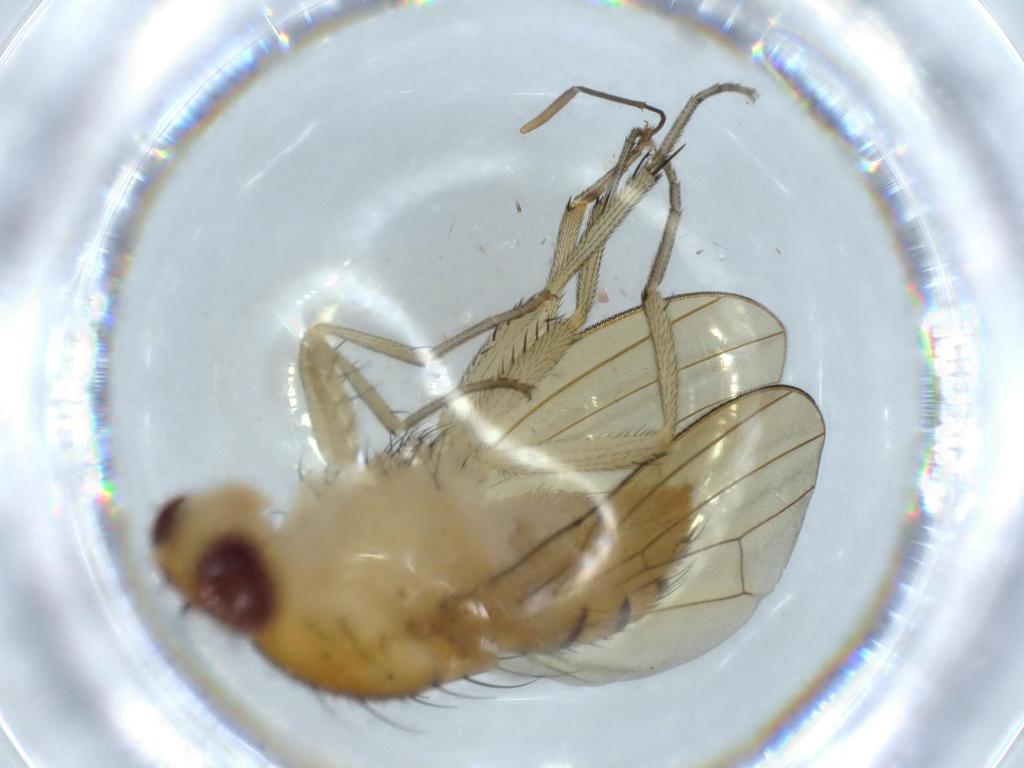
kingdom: Animalia
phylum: Arthropoda
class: Insecta
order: Diptera
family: Sciaridae
